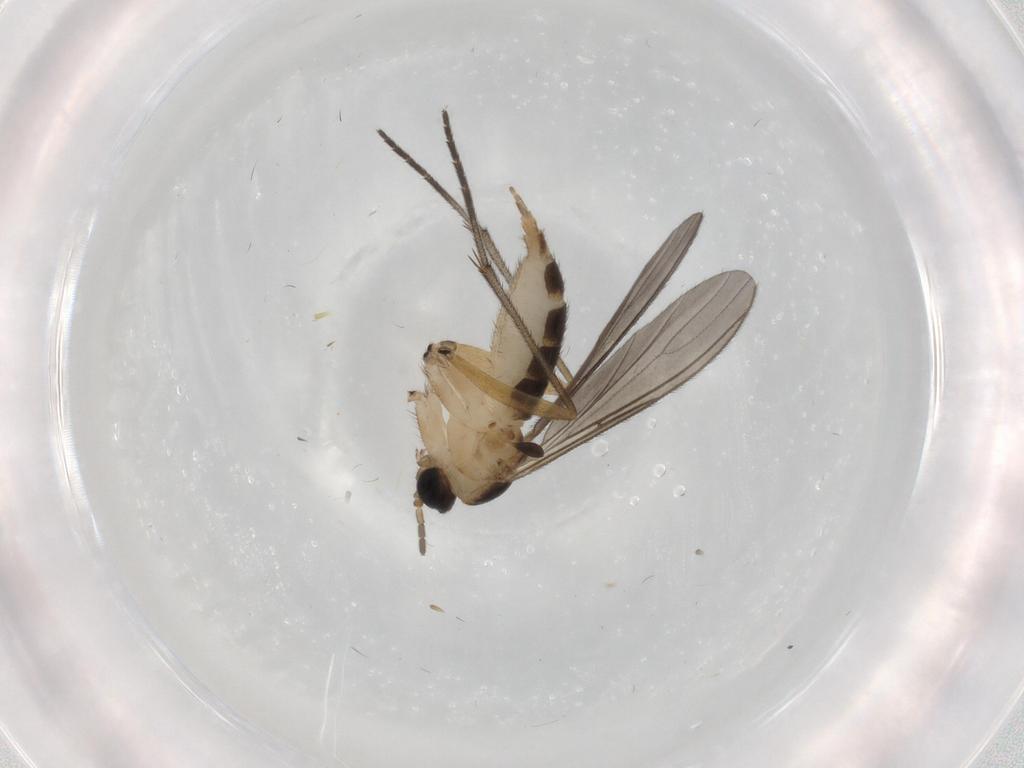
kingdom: Animalia
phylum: Arthropoda
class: Insecta
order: Diptera
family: Sciaridae
